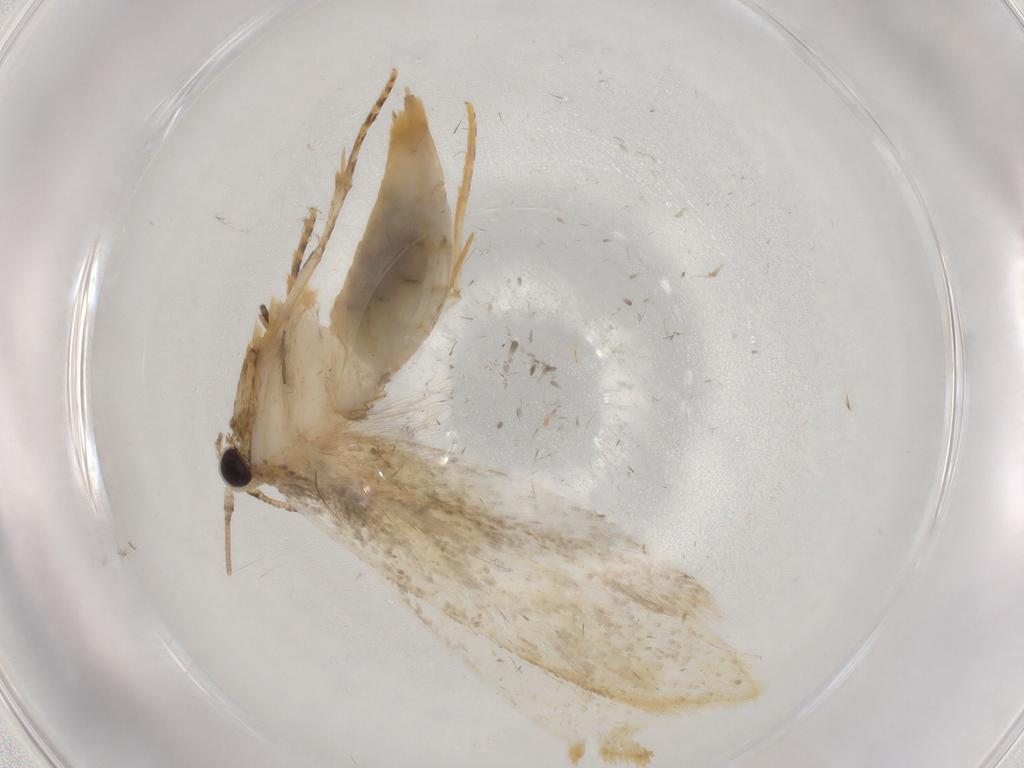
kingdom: Animalia
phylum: Arthropoda
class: Insecta
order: Lepidoptera
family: Tineidae
